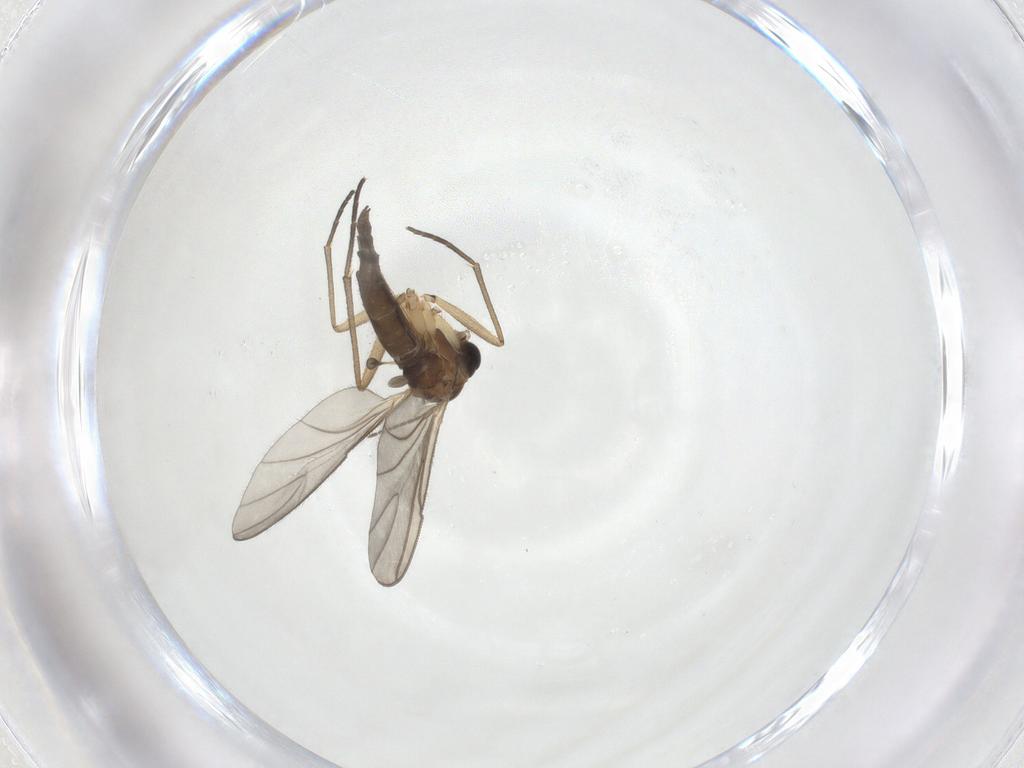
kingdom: Animalia
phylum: Arthropoda
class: Insecta
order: Diptera
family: Sciaridae
